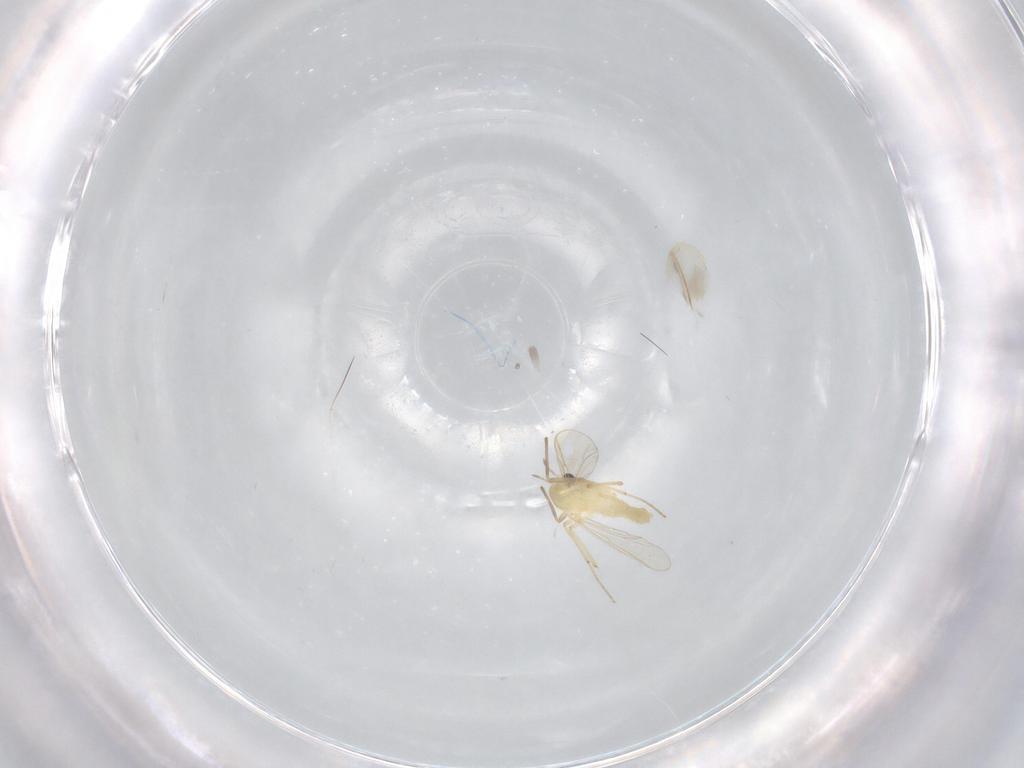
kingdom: Animalia
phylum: Arthropoda
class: Insecta
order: Diptera
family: Chironomidae
